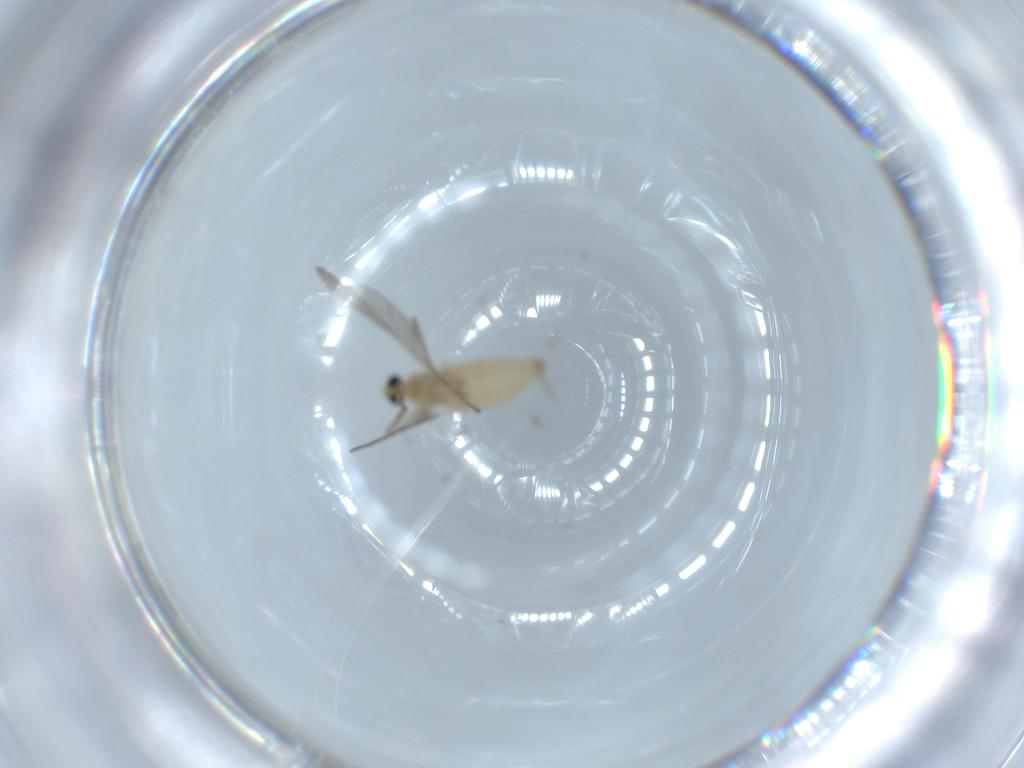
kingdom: Animalia
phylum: Arthropoda
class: Insecta
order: Diptera
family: Cecidomyiidae
